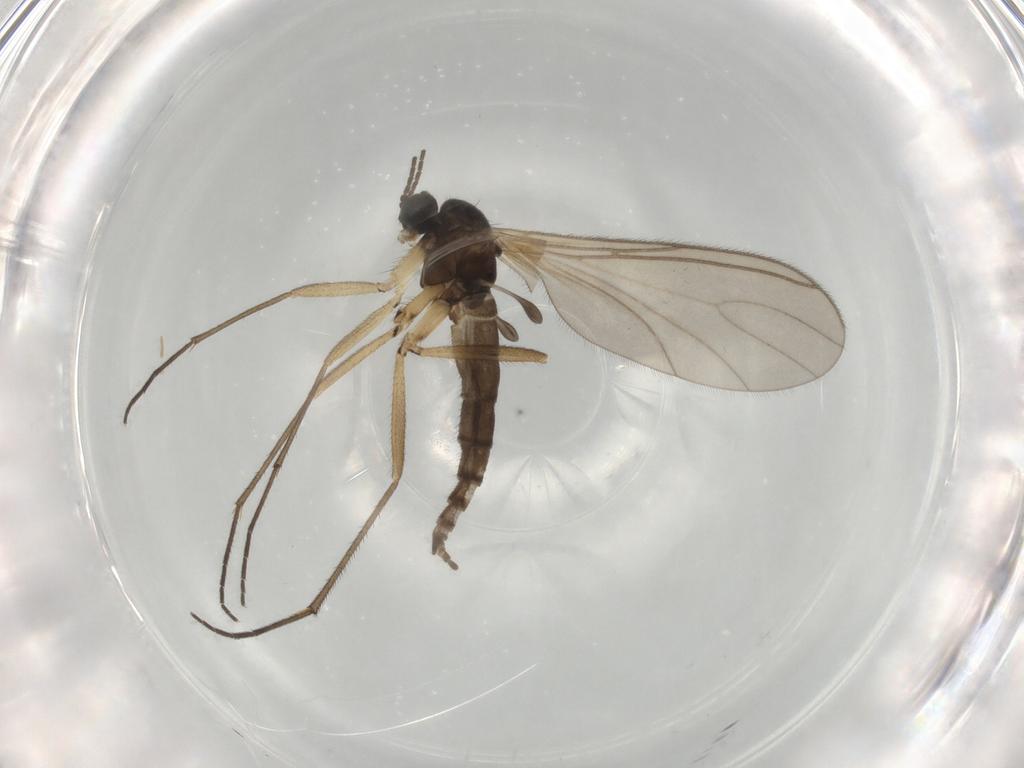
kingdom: Animalia
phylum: Arthropoda
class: Insecta
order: Diptera
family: Sciaridae
